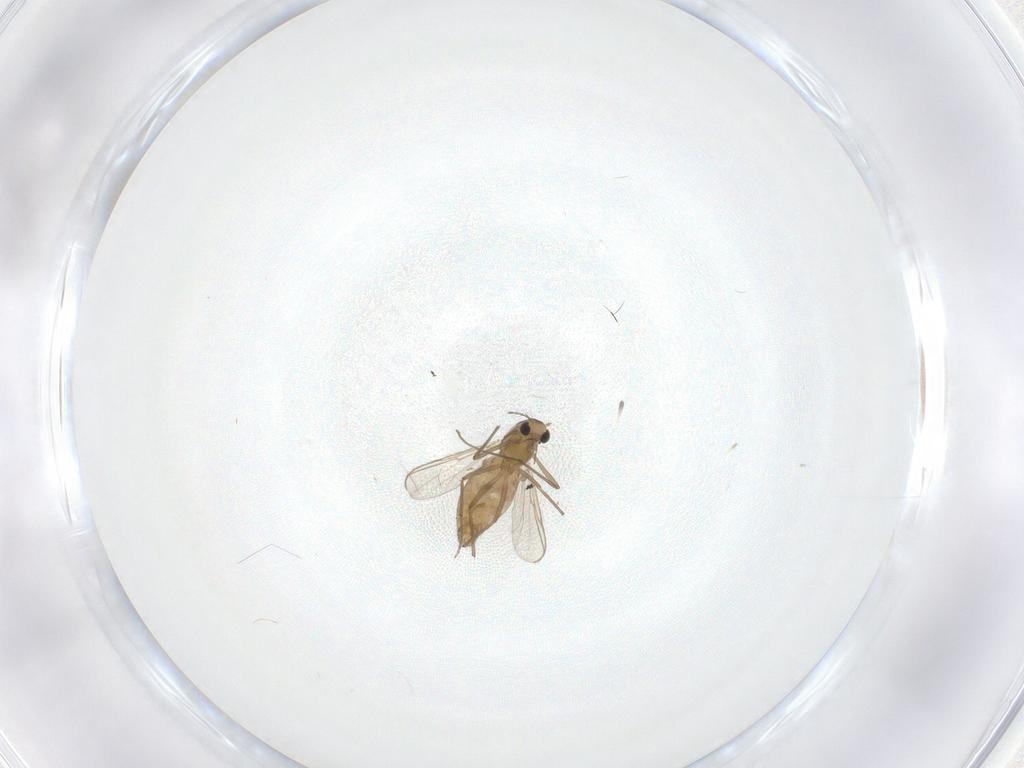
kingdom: Animalia
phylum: Arthropoda
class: Insecta
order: Diptera
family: Chironomidae
